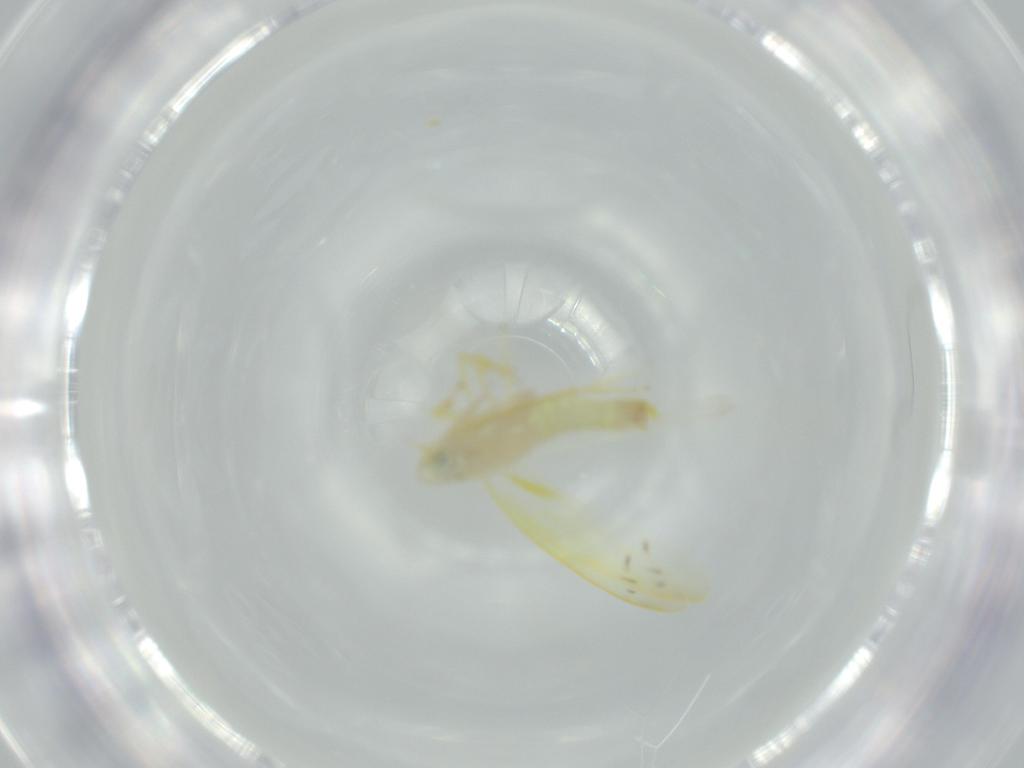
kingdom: Animalia
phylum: Arthropoda
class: Insecta
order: Hemiptera
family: Cicadellidae
